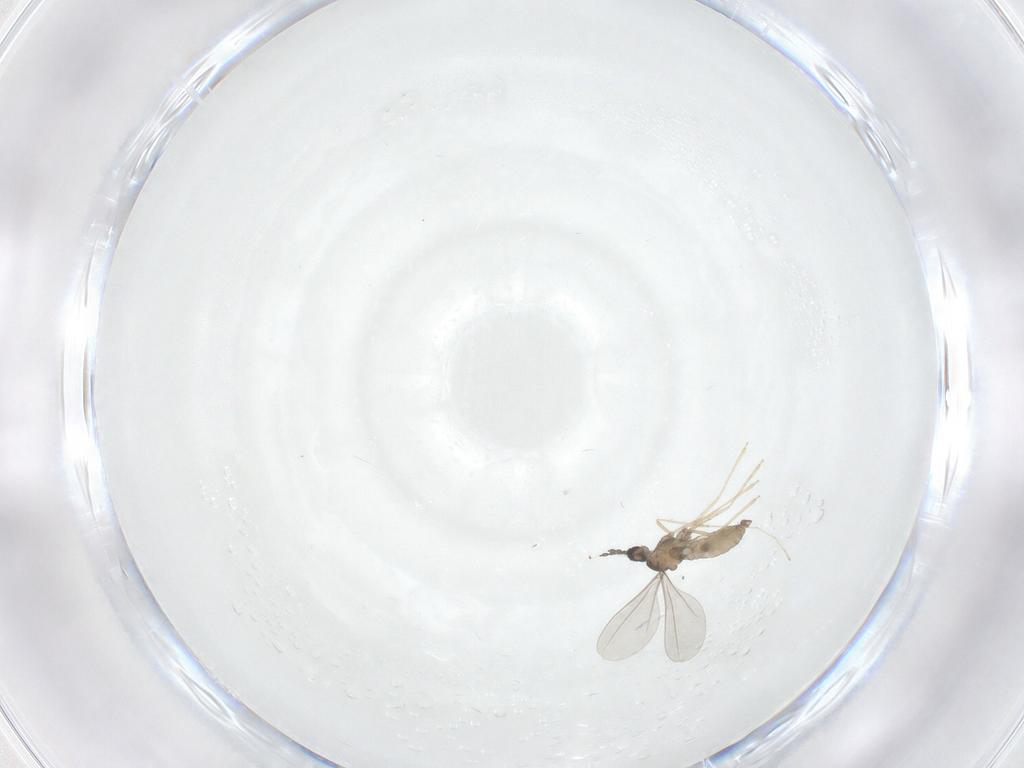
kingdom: Animalia
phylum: Arthropoda
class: Insecta
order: Diptera
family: Phoridae
